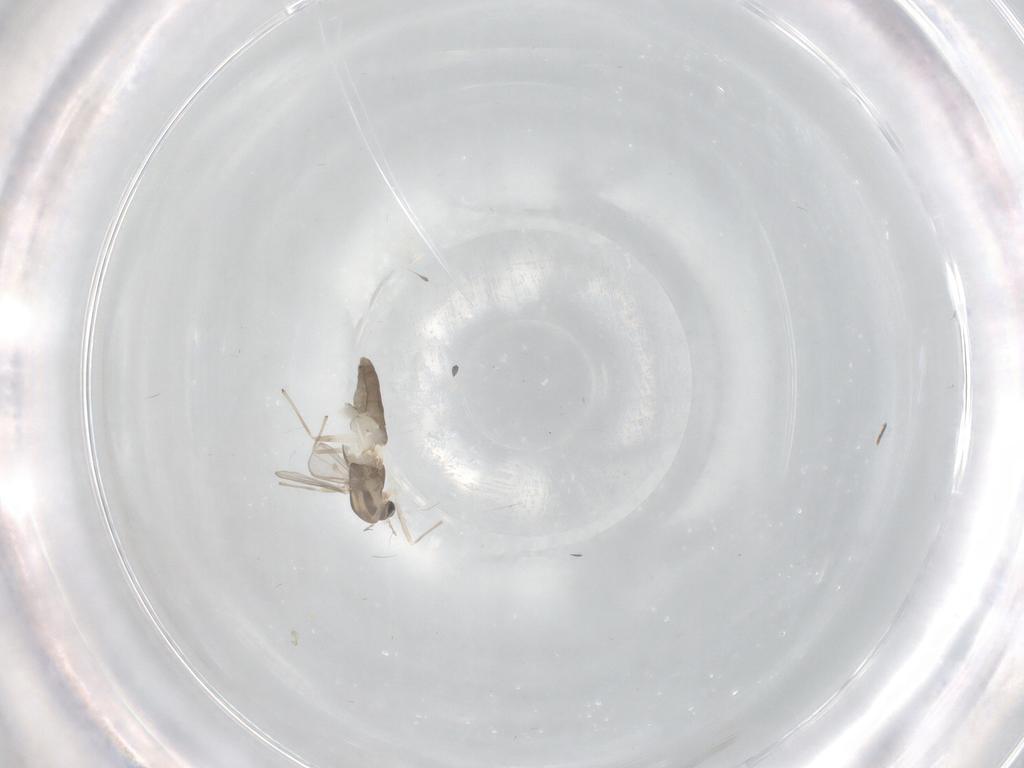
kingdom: Animalia
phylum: Arthropoda
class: Insecta
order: Diptera
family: Chironomidae
